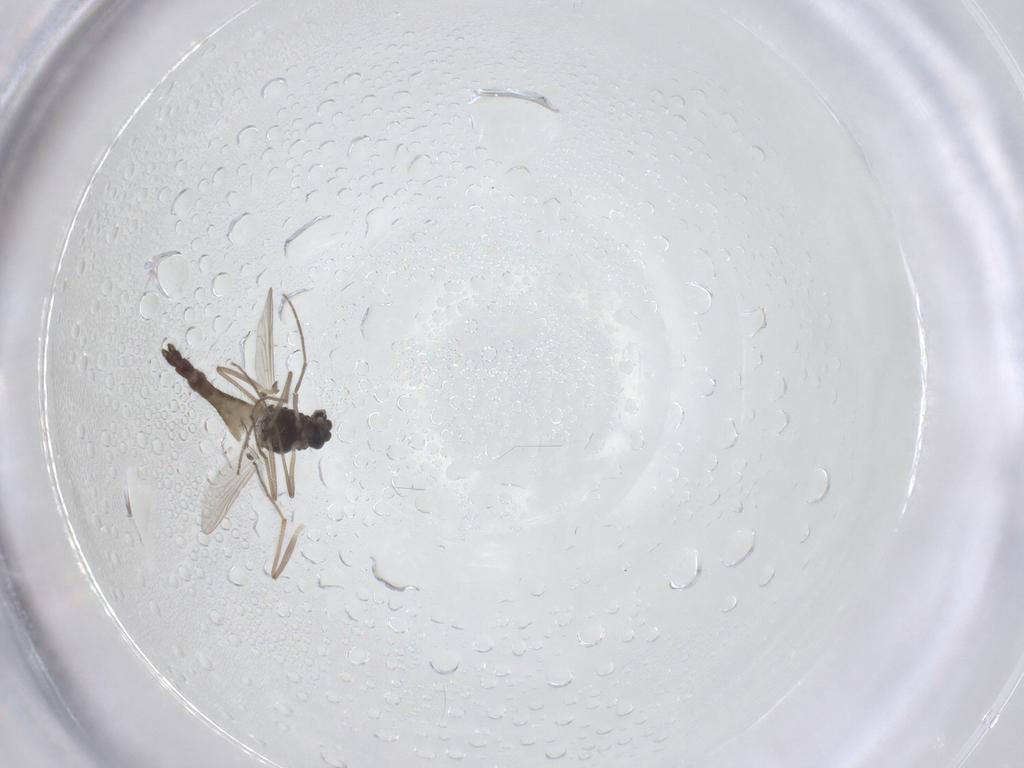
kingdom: Animalia
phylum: Arthropoda
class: Insecta
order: Diptera
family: Chironomidae
